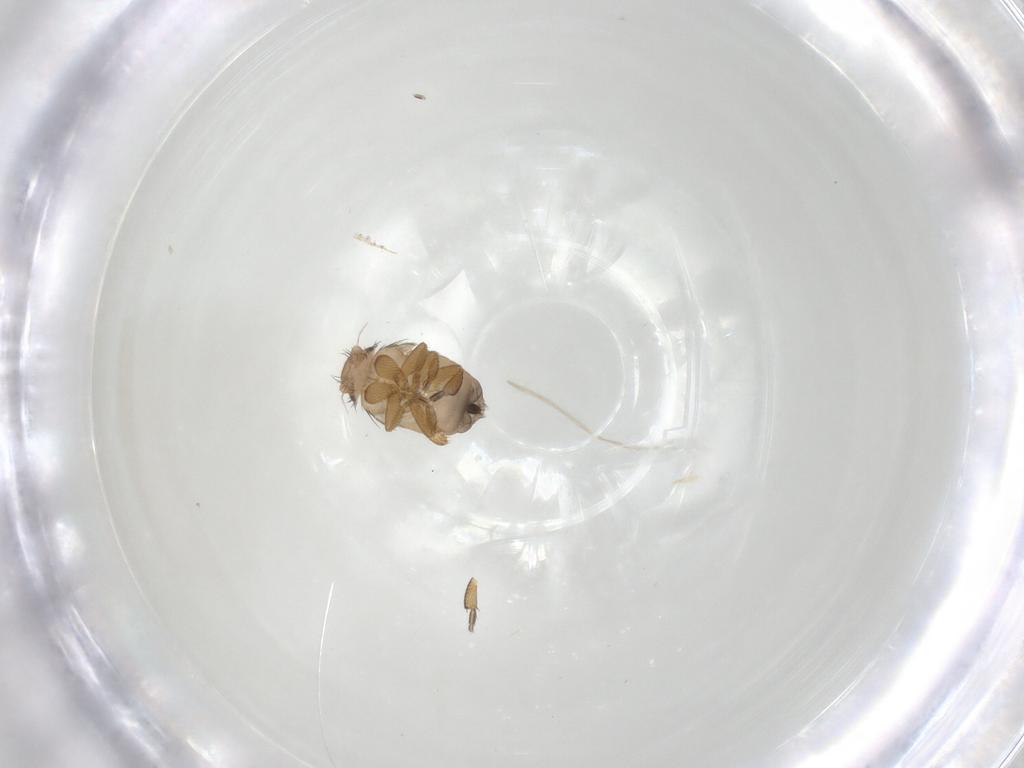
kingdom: Animalia
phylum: Arthropoda
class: Insecta
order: Diptera
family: Phoridae
